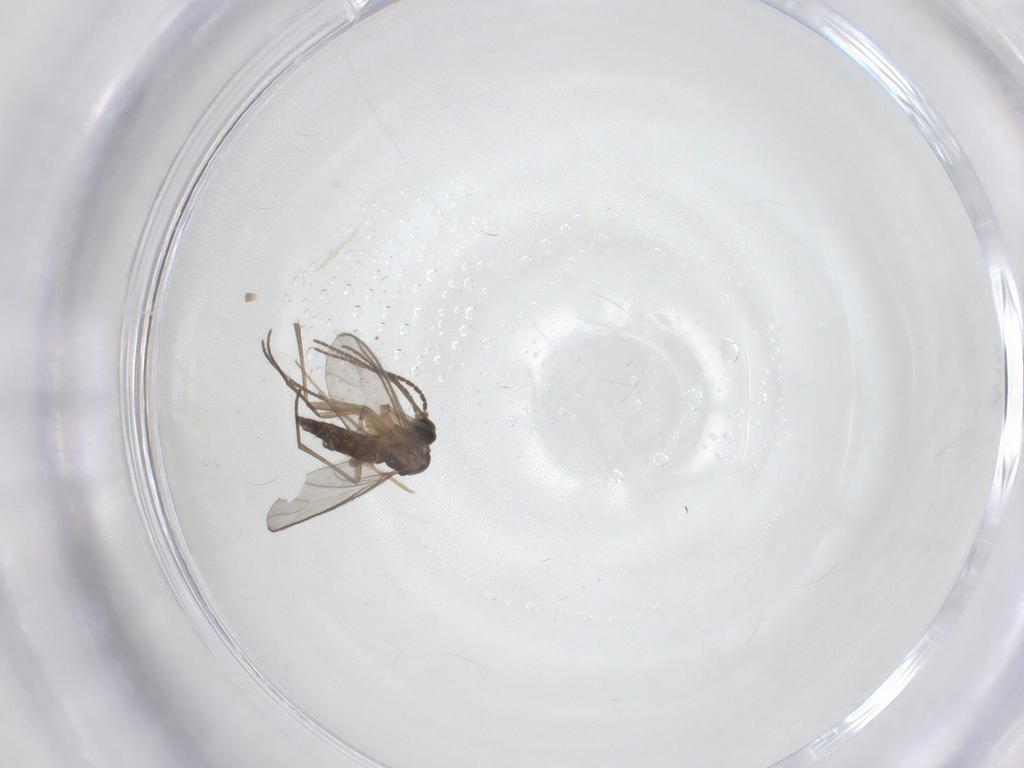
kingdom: Animalia
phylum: Arthropoda
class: Insecta
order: Diptera
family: Sciaridae
